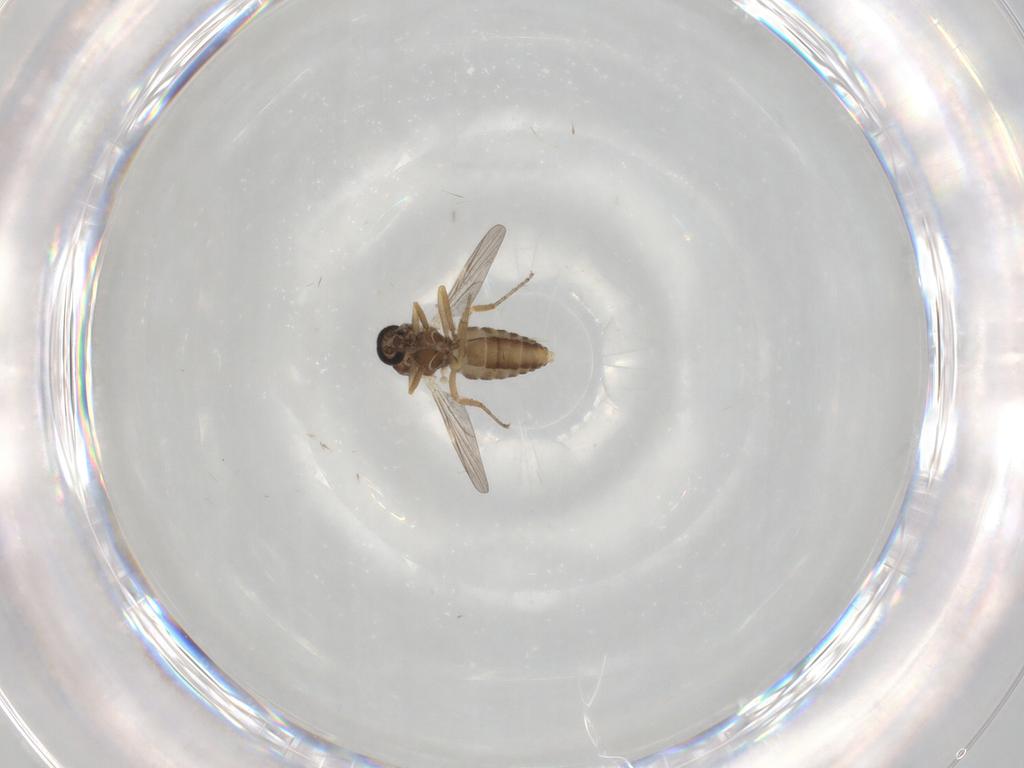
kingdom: Animalia
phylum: Arthropoda
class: Insecta
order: Diptera
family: Ceratopogonidae
